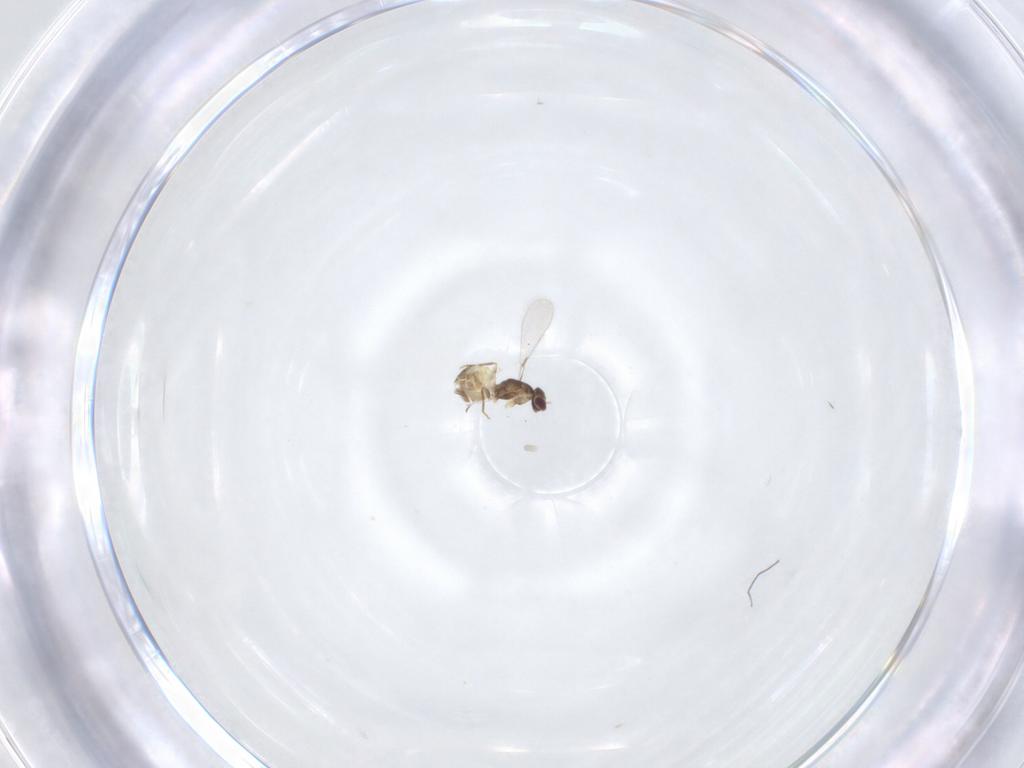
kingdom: Animalia
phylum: Arthropoda
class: Insecta
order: Hymenoptera
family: Mymaridae
